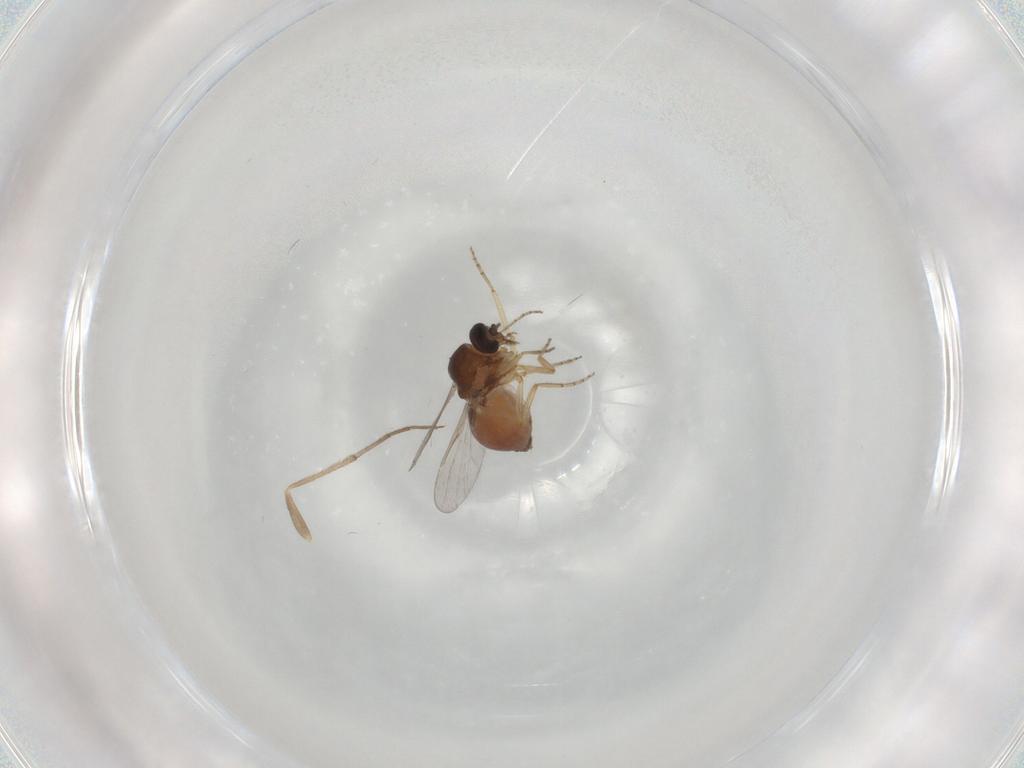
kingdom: Animalia
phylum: Arthropoda
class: Insecta
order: Diptera
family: Ceratopogonidae
